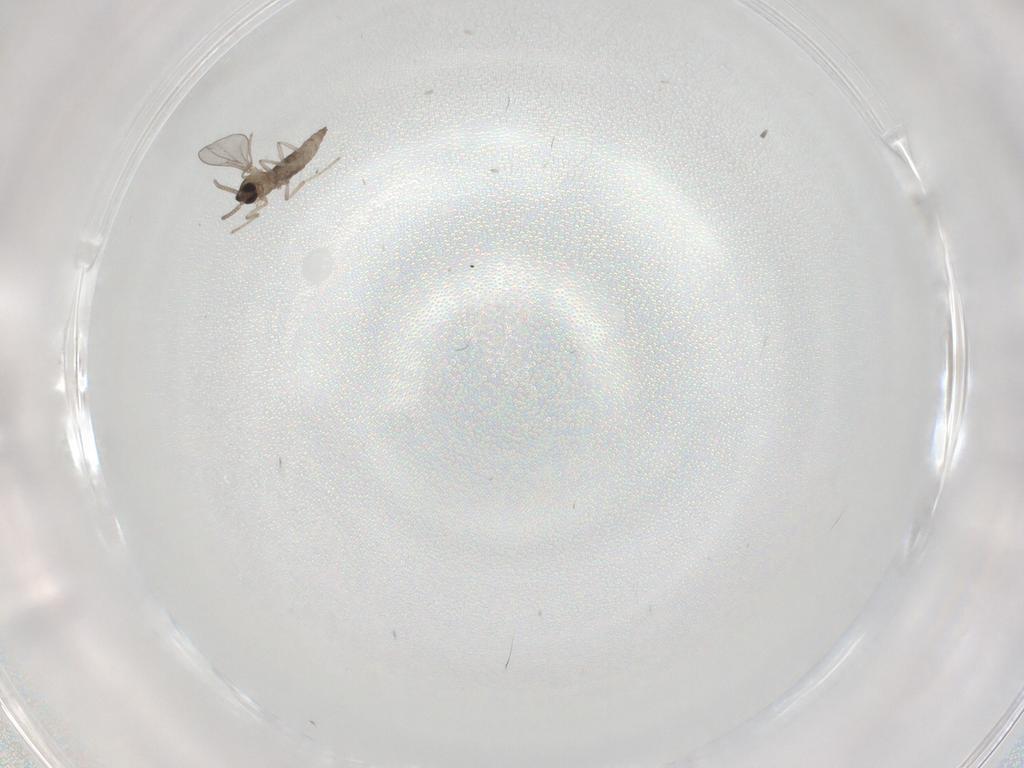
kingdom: Animalia
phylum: Arthropoda
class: Insecta
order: Diptera
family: Cecidomyiidae
